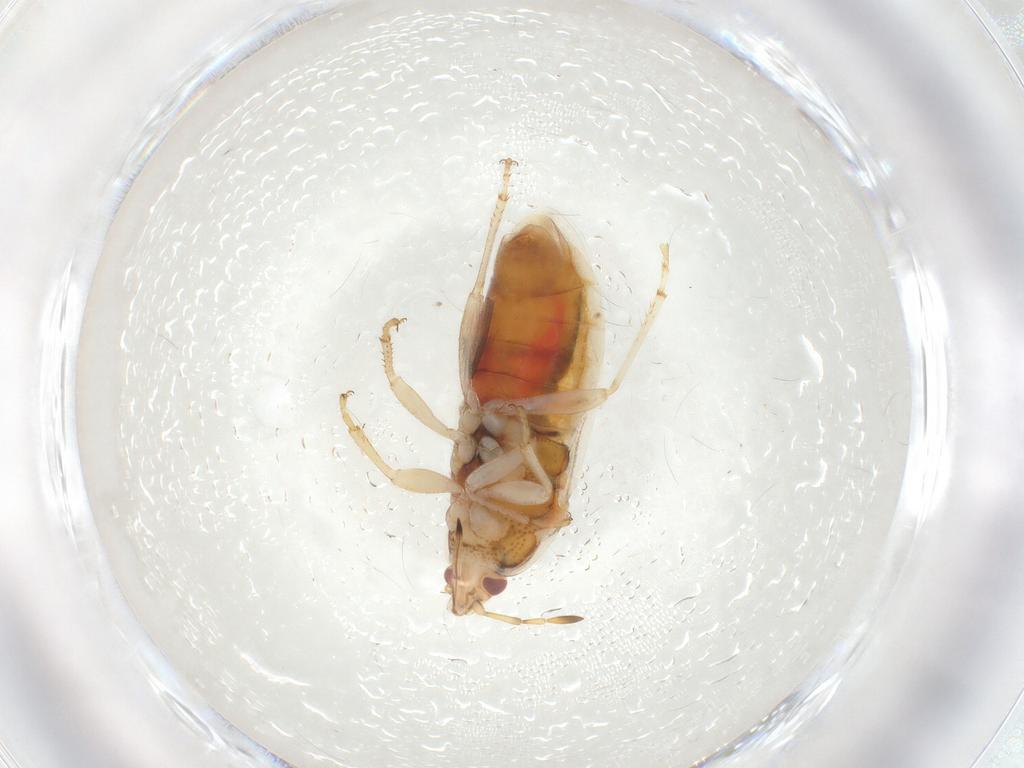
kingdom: Animalia
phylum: Arthropoda
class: Insecta
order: Hemiptera
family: Artheneidae
